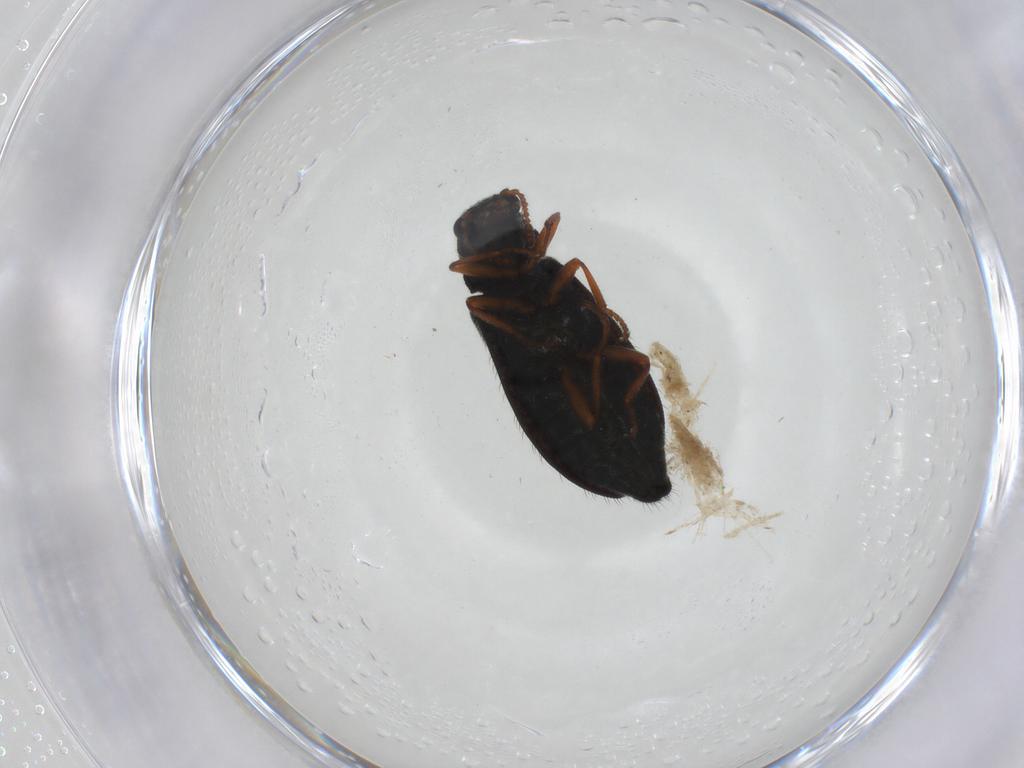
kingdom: Animalia
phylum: Arthropoda
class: Insecta
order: Coleoptera
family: Melyridae
